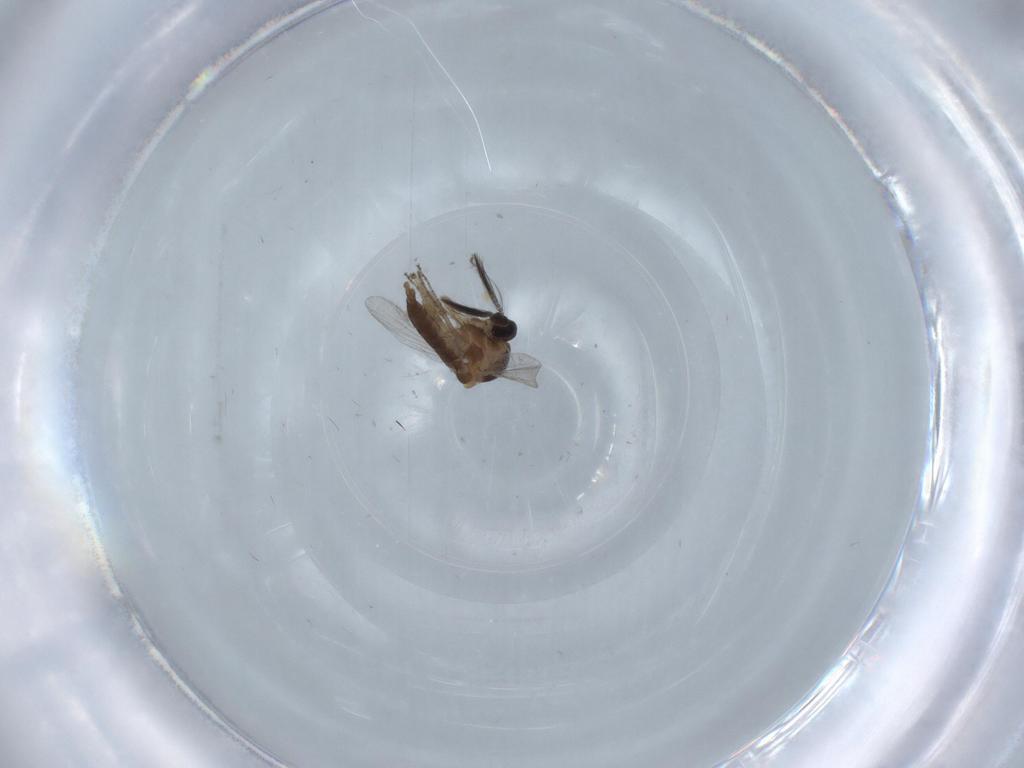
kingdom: Animalia
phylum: Arthropoda
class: Insecta
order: Diptera
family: Ceratopogonidae
